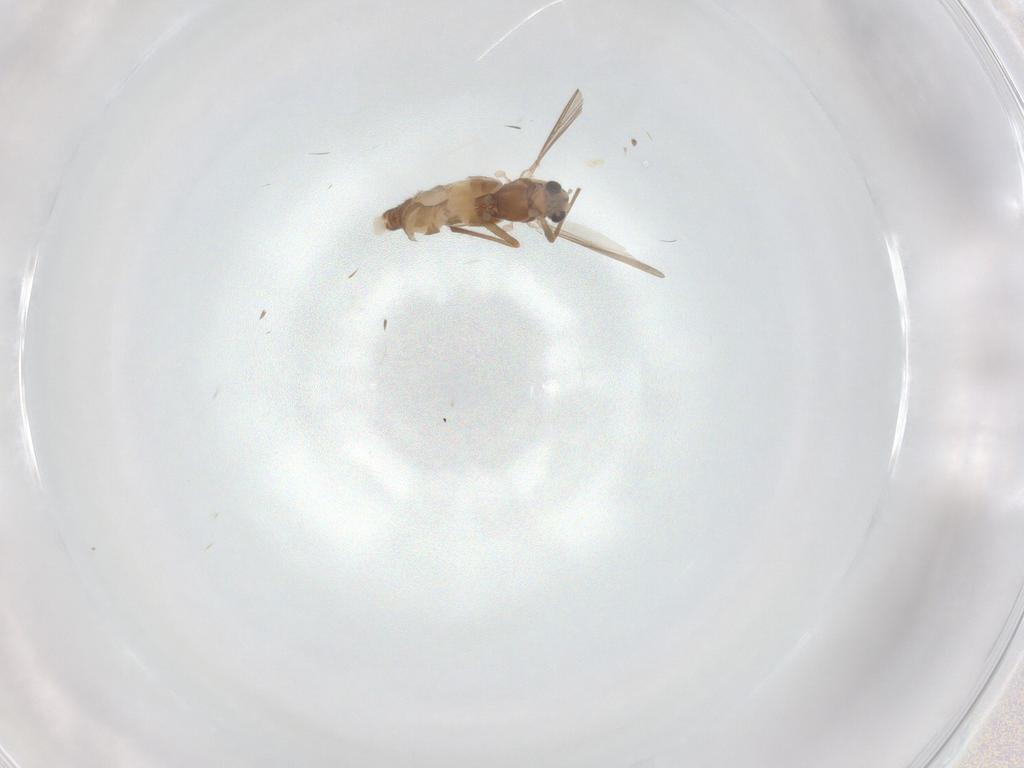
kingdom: Animalia
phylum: Arthropoda
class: Insecta
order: Diptera
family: Chironomidae
